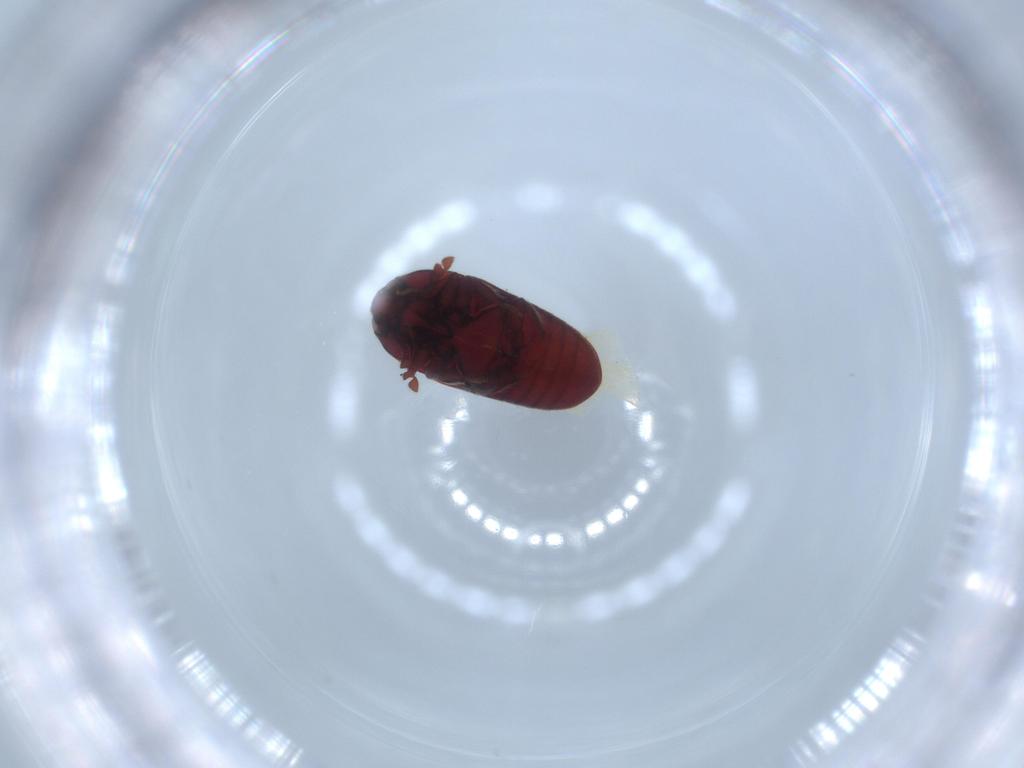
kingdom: Animalia
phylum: Arthropoda
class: Insecta
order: Coleoptera
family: Throscidae
